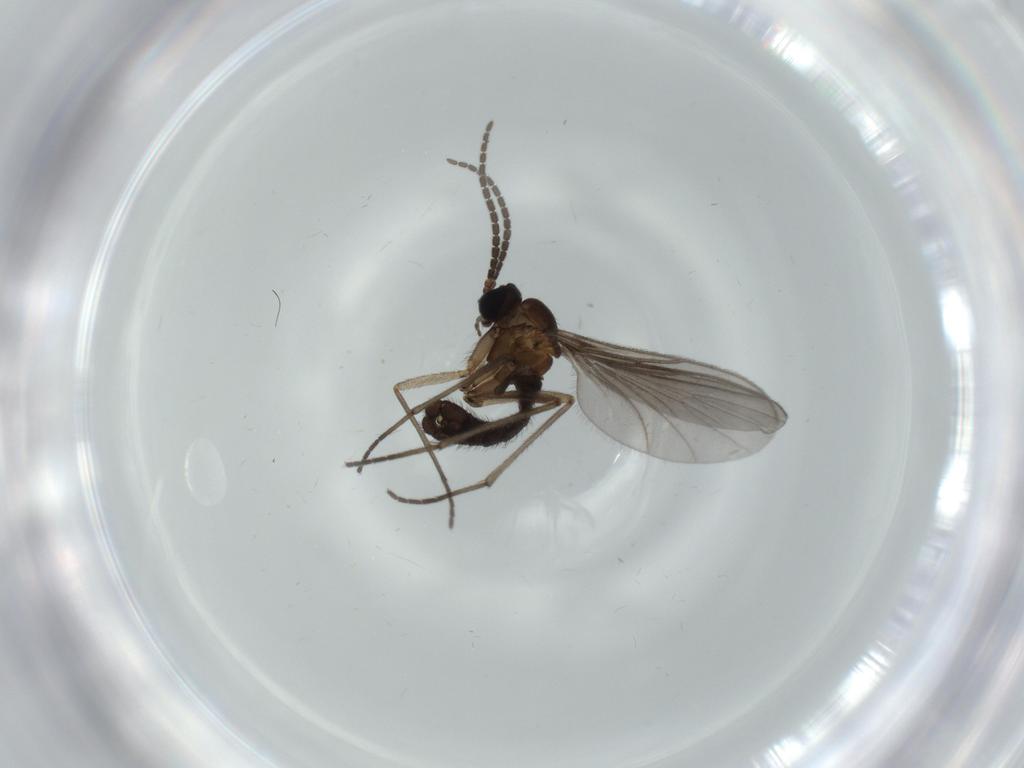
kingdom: Animalia
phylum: Arthropoda
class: Insecta
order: Diptera
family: Sciaridae
